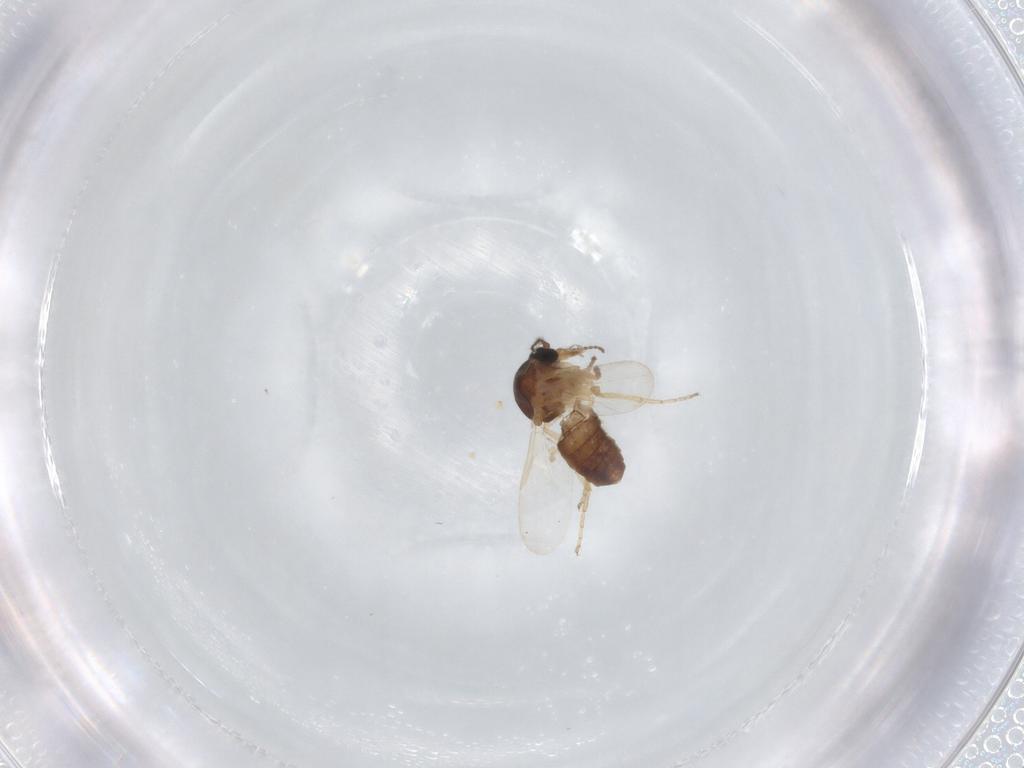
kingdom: Animalia
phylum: Arthropoda
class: Insecta
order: Diptera
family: Ceratopogonidae
